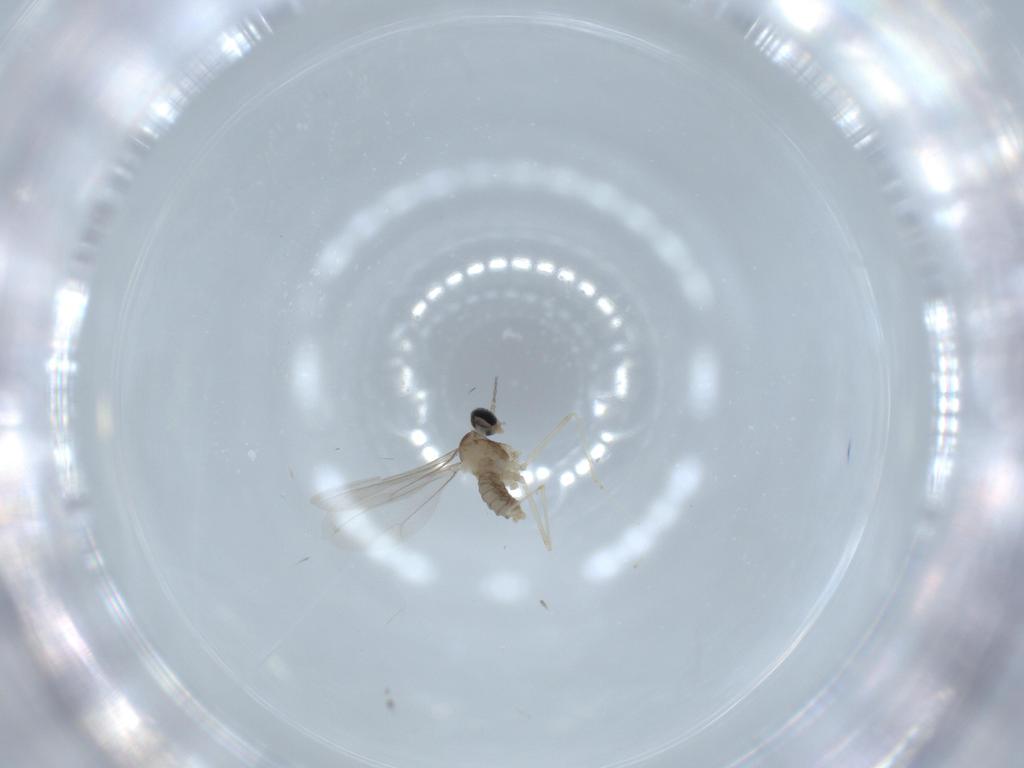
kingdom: Animalia
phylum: Arthropoda
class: Insecta
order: Diptera
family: Cecidomyiidae
